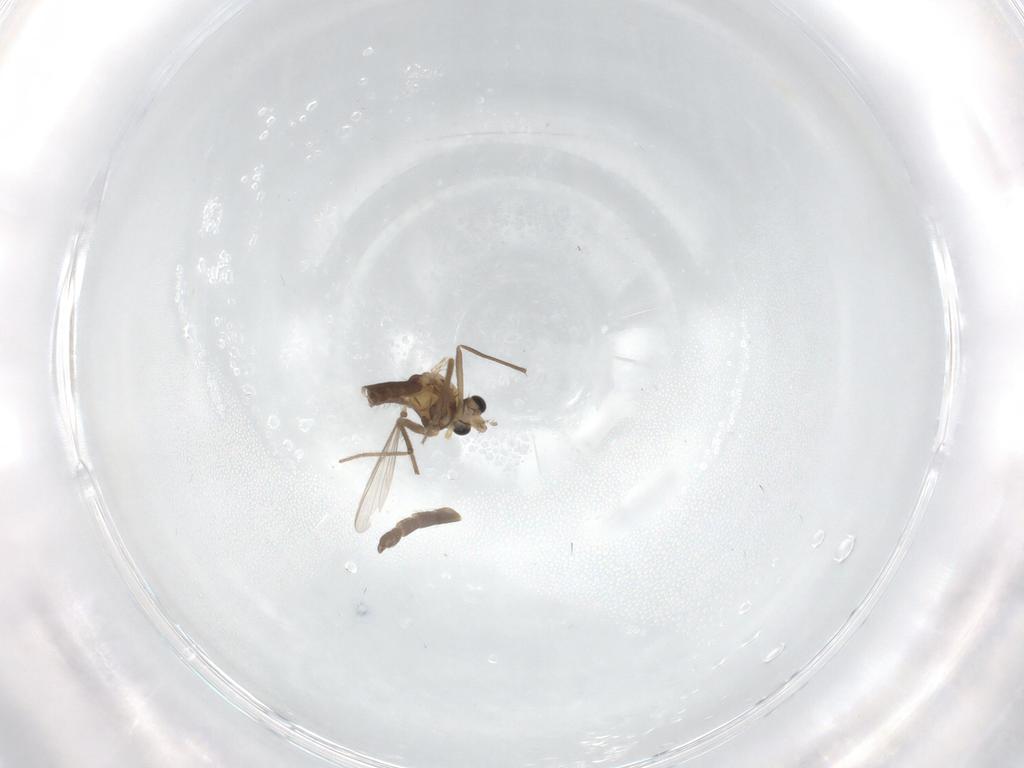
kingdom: Animalia
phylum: Arthropoda
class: Insecta
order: Diptera
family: Chironomidae
